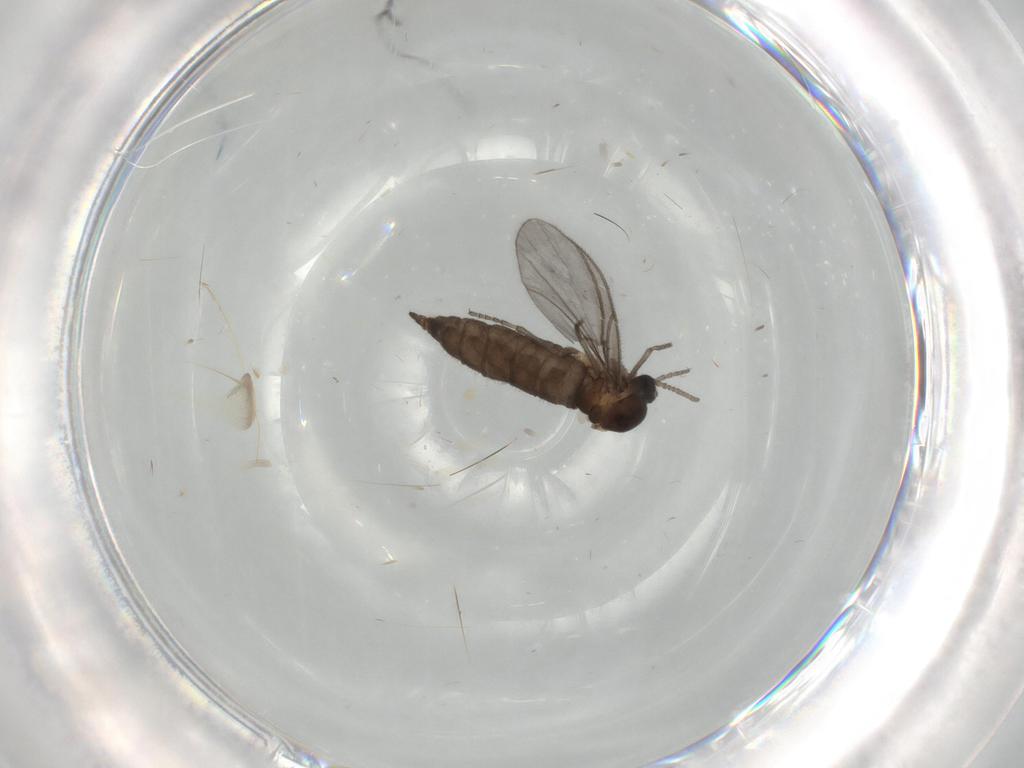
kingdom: Animalia
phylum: Arthropoda
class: Insecta
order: Diptera
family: Sciaridae
